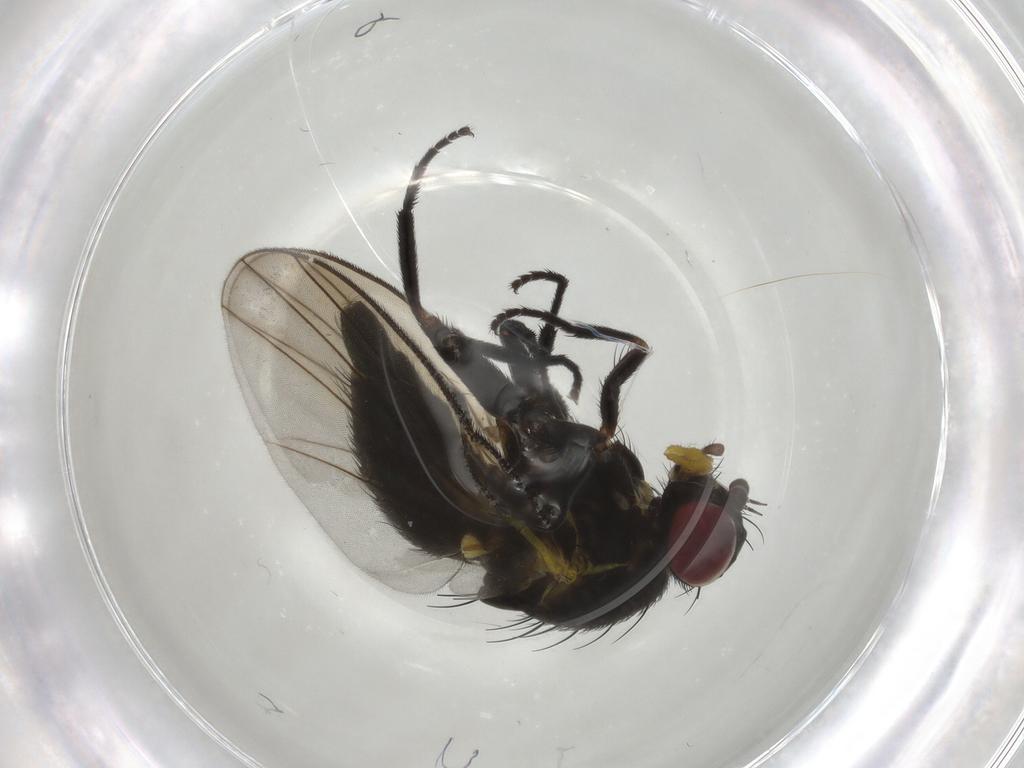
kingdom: Animalia
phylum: Arthropoda
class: Insecta
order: Diptera
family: Agromyzidae
